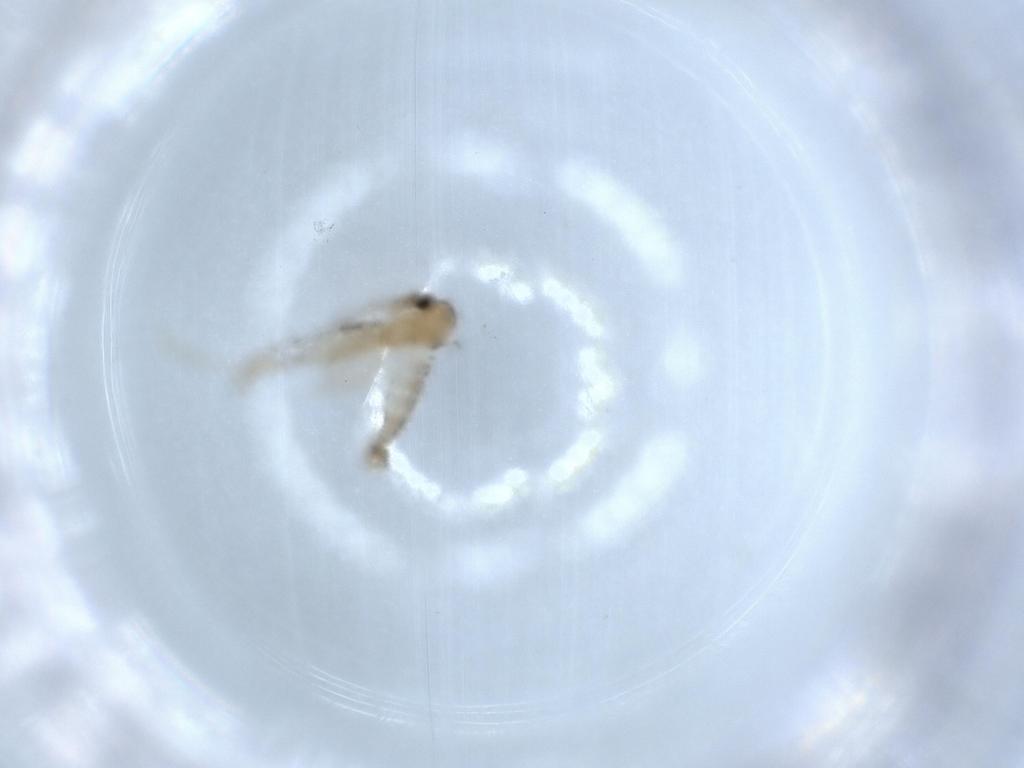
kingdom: Animalia
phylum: Arthropoda
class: Insecta
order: Diptera
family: Psychodidae
